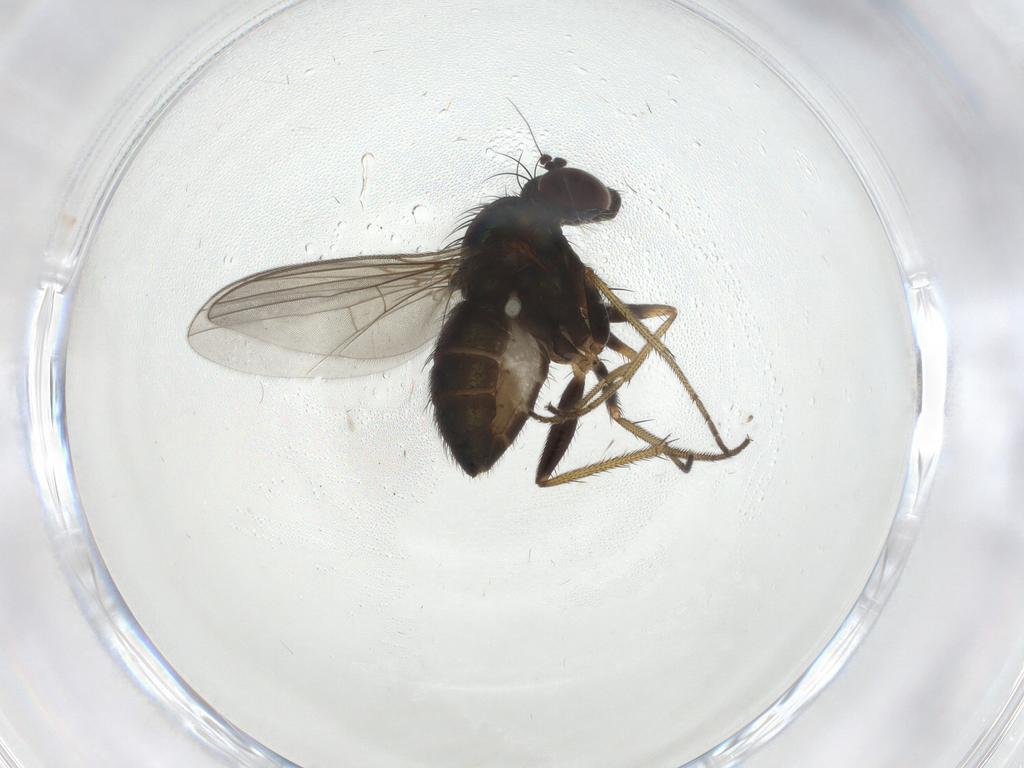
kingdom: Animalia
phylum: Arthropoda
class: Insecta
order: Diptera
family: Dolichopodidae
